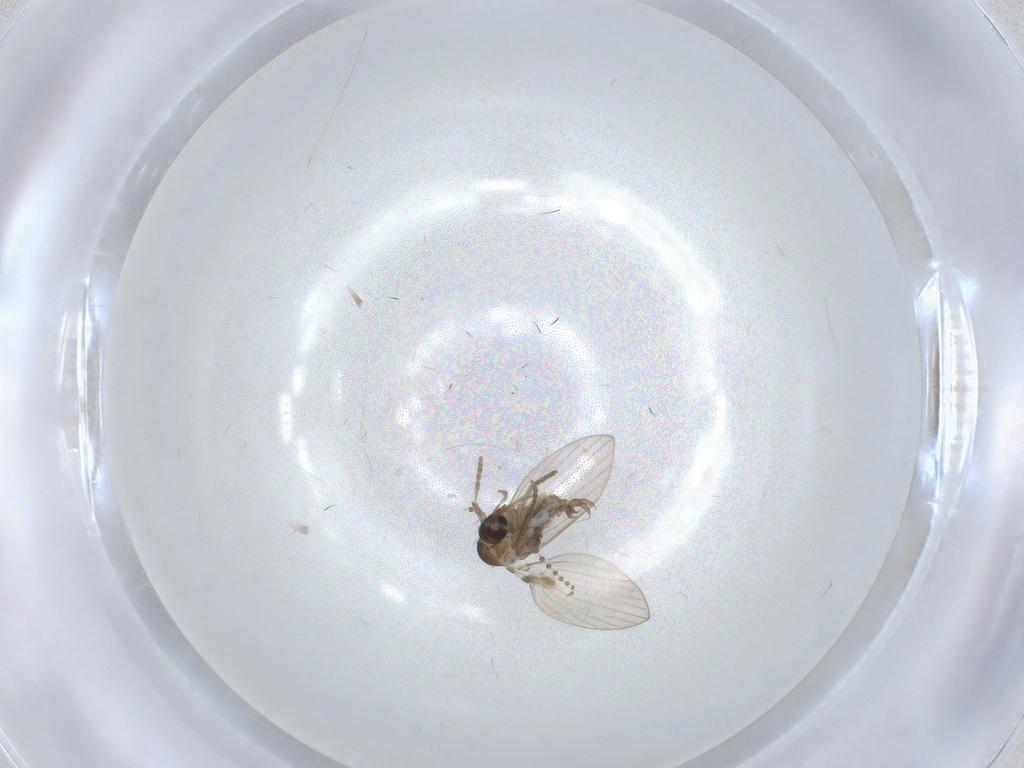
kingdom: Animalia
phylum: Arthropoda
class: Insecta
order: Diptera
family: Psychodidae
